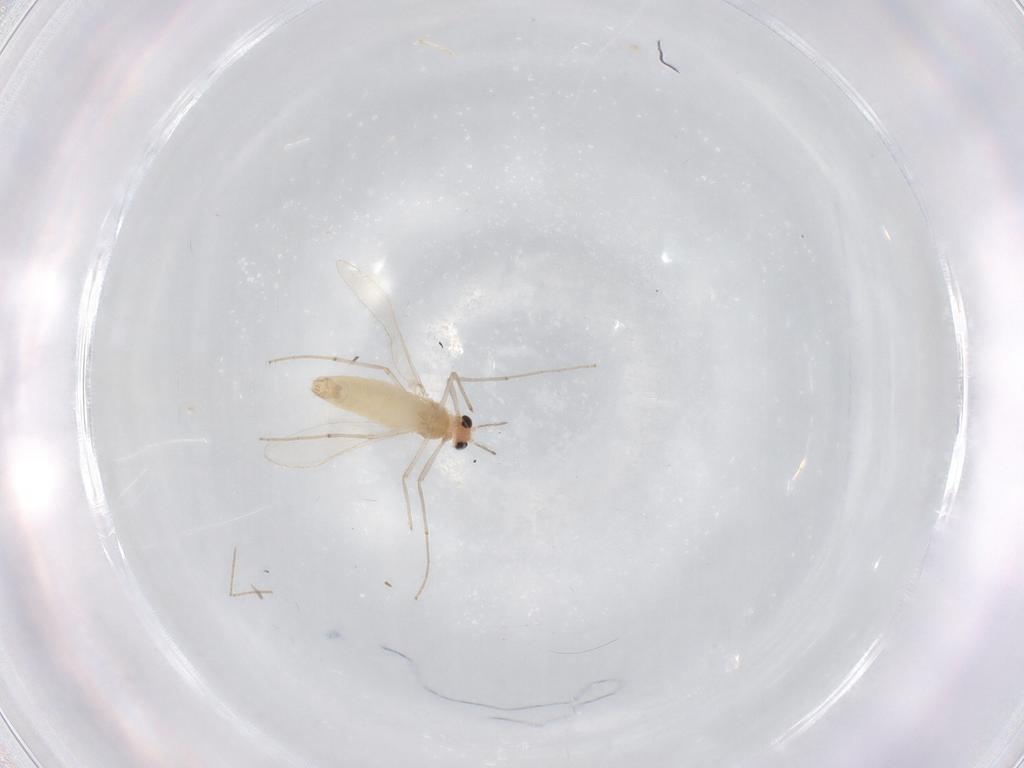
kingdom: Animalia
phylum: Arthropoda
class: Insecta
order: Diptera
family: Chironomidae
